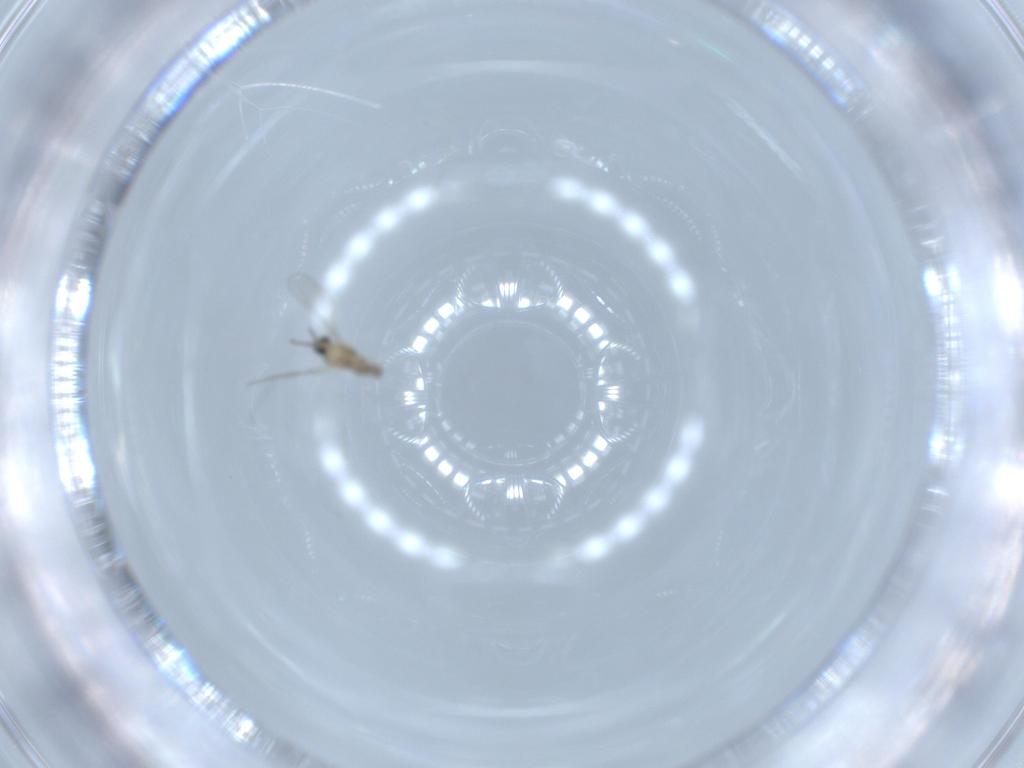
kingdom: Animalia
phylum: Arthropoda
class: Insecta
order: Diptera
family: Cecidomyiidae
